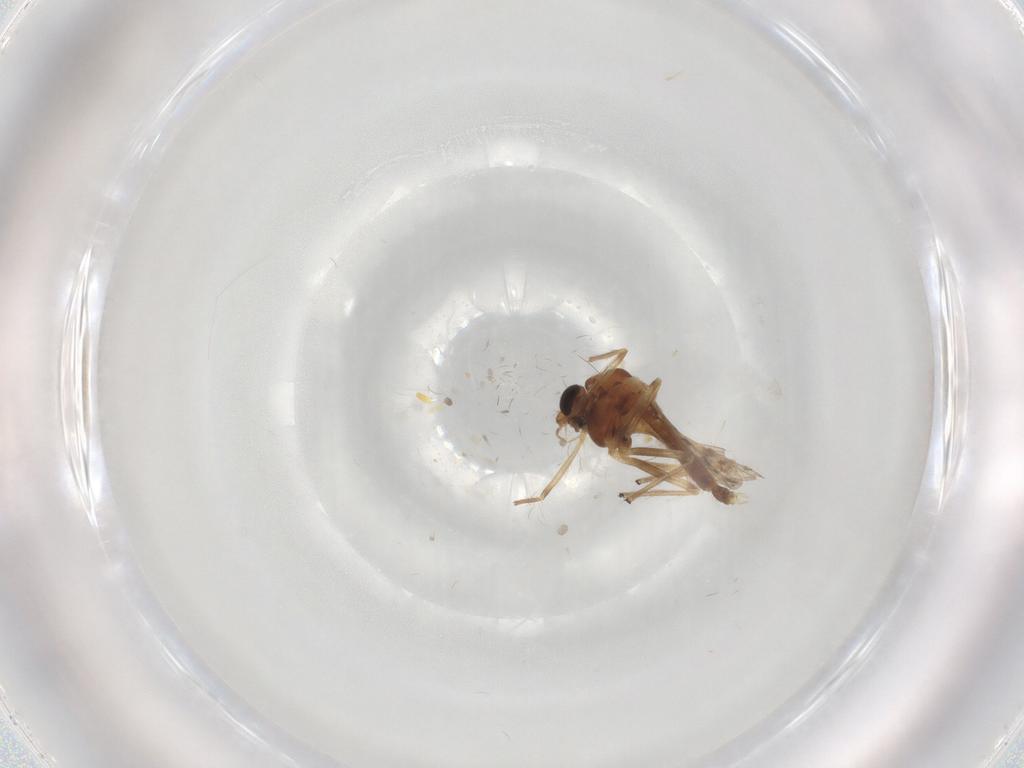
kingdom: Animalia
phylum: Arthropoda
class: Insecta
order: Diptera
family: Chironomidae
